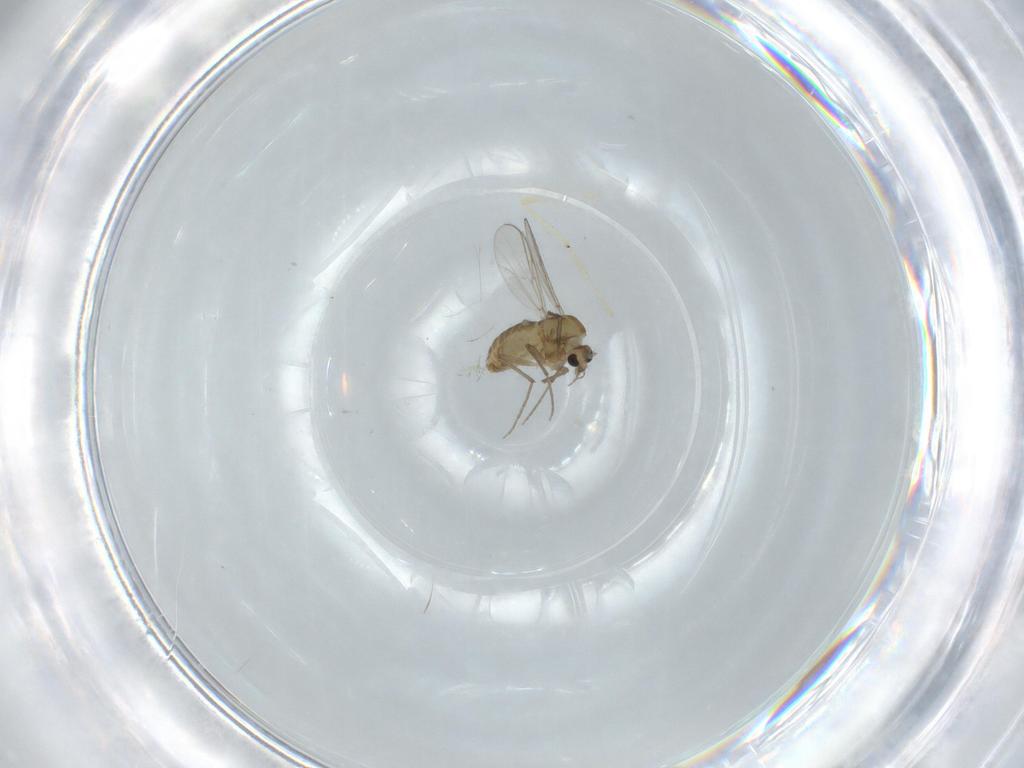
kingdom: Animalia
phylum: Arthropoda
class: Insecta
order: Diptera
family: Chironomidae
